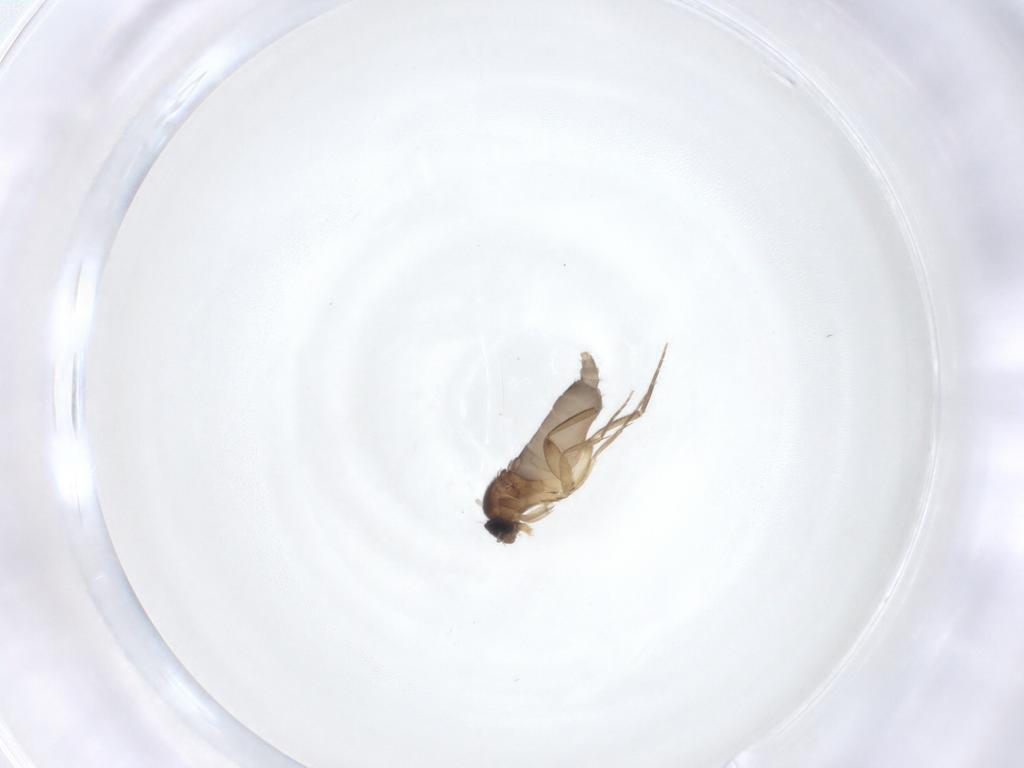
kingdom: Animalia
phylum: Arthropoda
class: Insecta
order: Diptera
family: Phoridae
